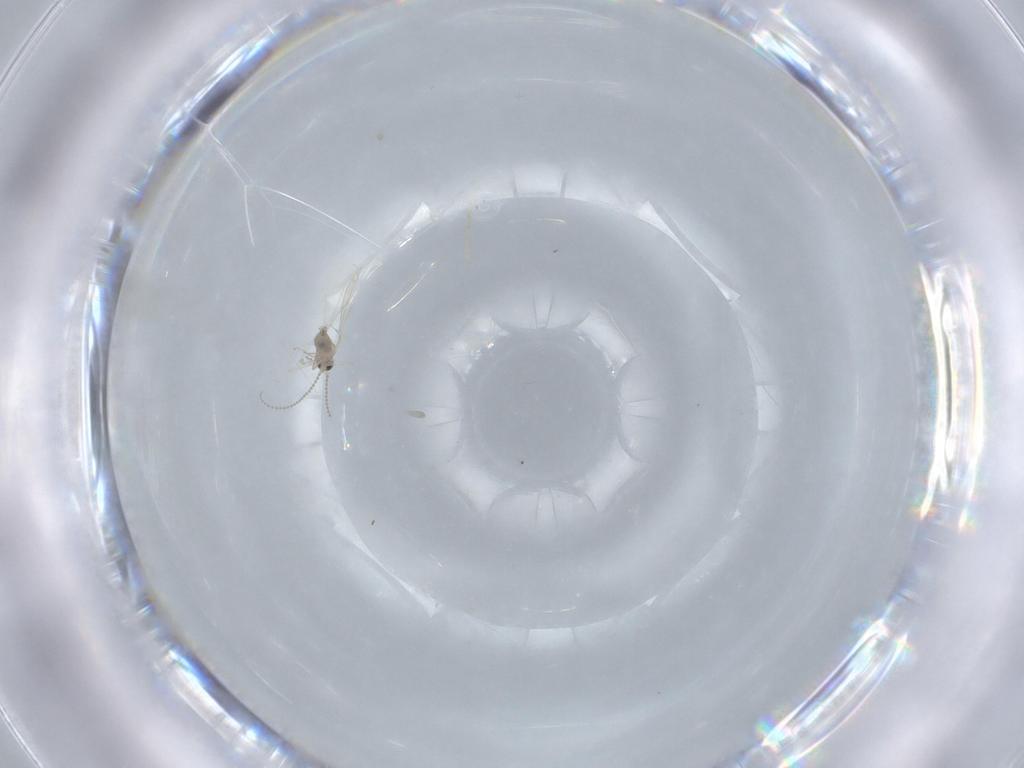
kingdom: Animalia
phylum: Arthropoda
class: Insecta
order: Diptera
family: Cecidomyiidae
